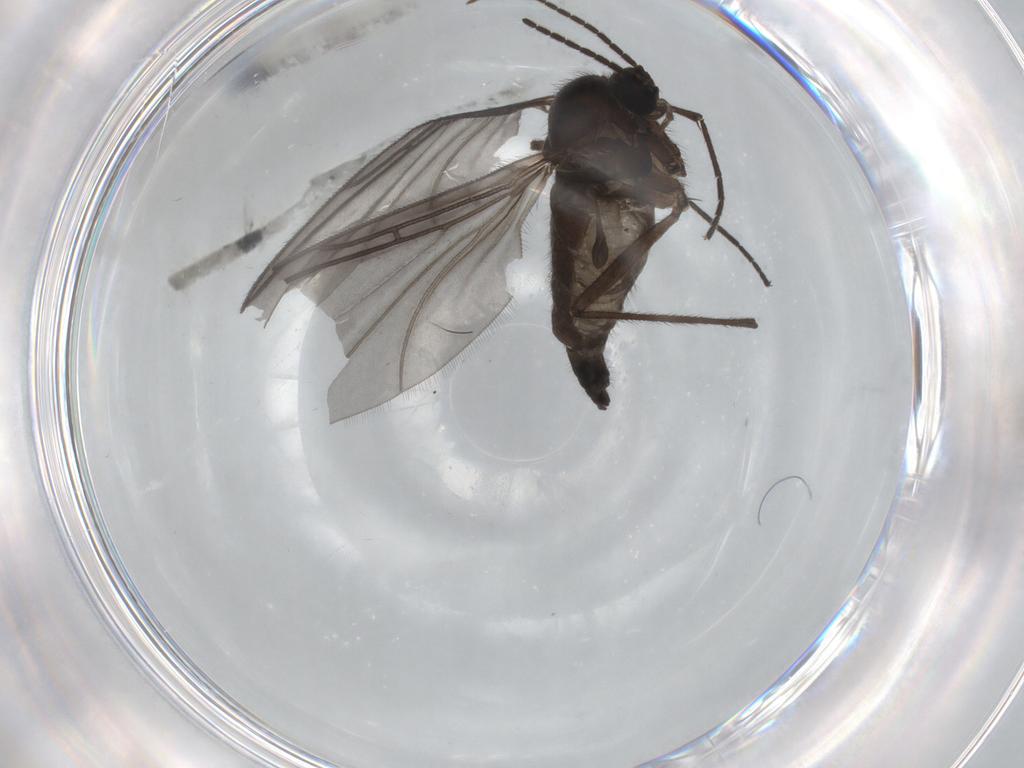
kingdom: Animalia
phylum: Arthropoda
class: Insecta
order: Diptera
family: Sciaridae
